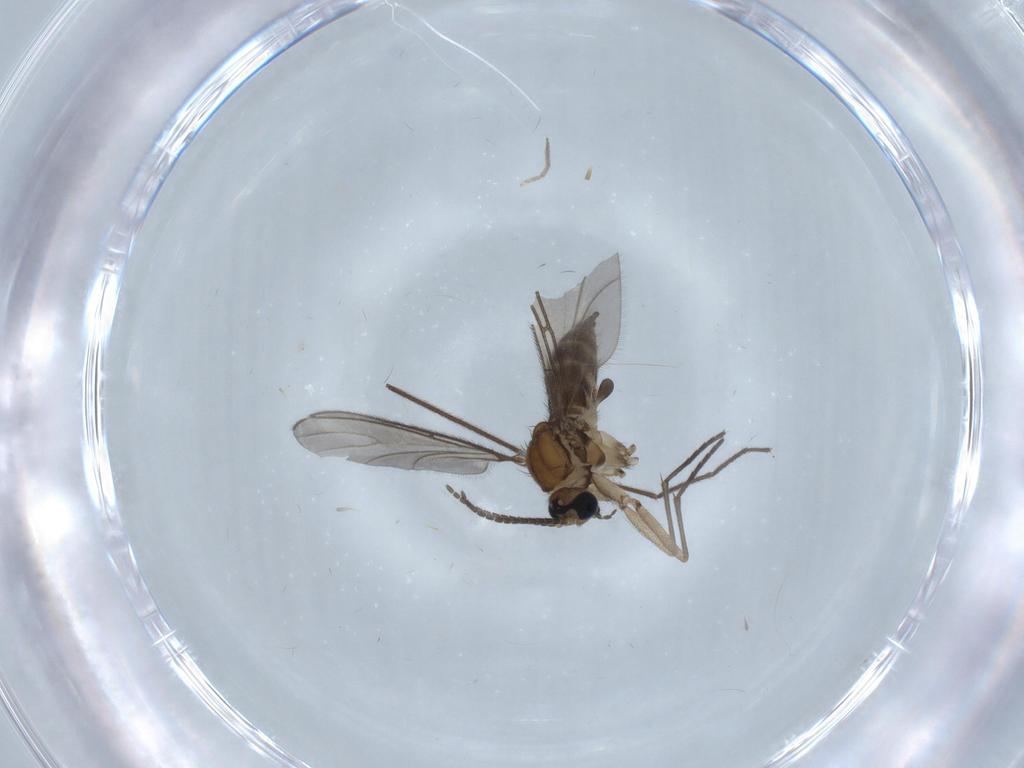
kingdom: Animalia
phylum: Arthropoda
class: Insecta
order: Diptera
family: Sciaridae
